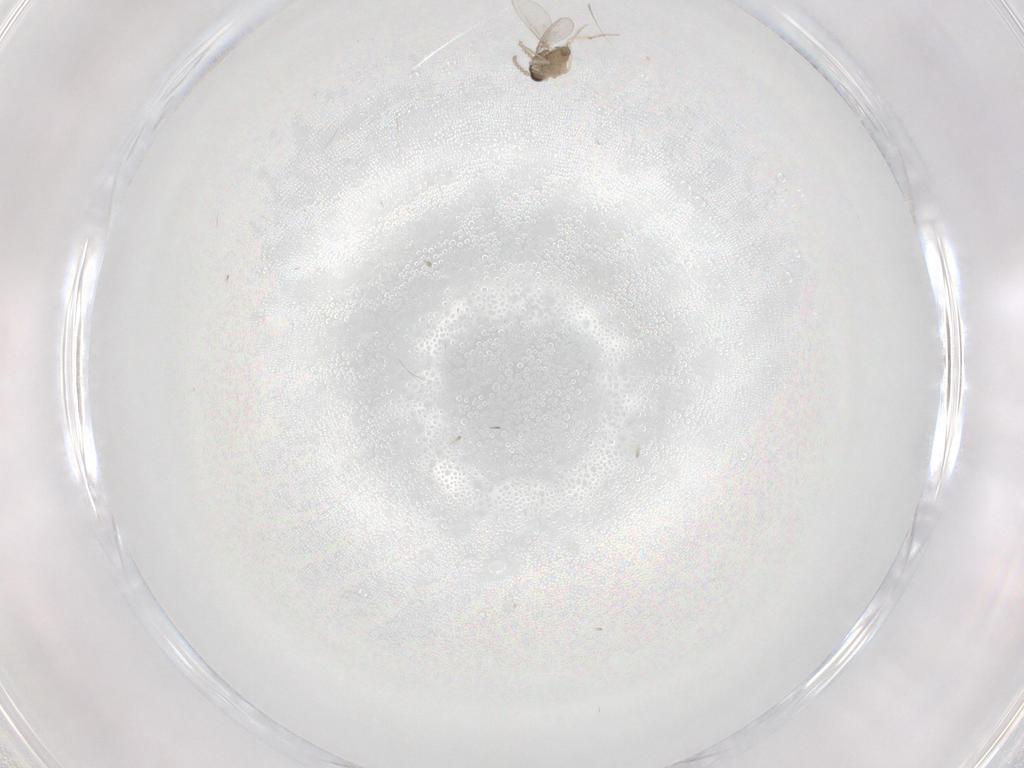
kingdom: Animalia
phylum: Arthropoda
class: Insecta
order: Diptera
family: Cecidomyiidae
